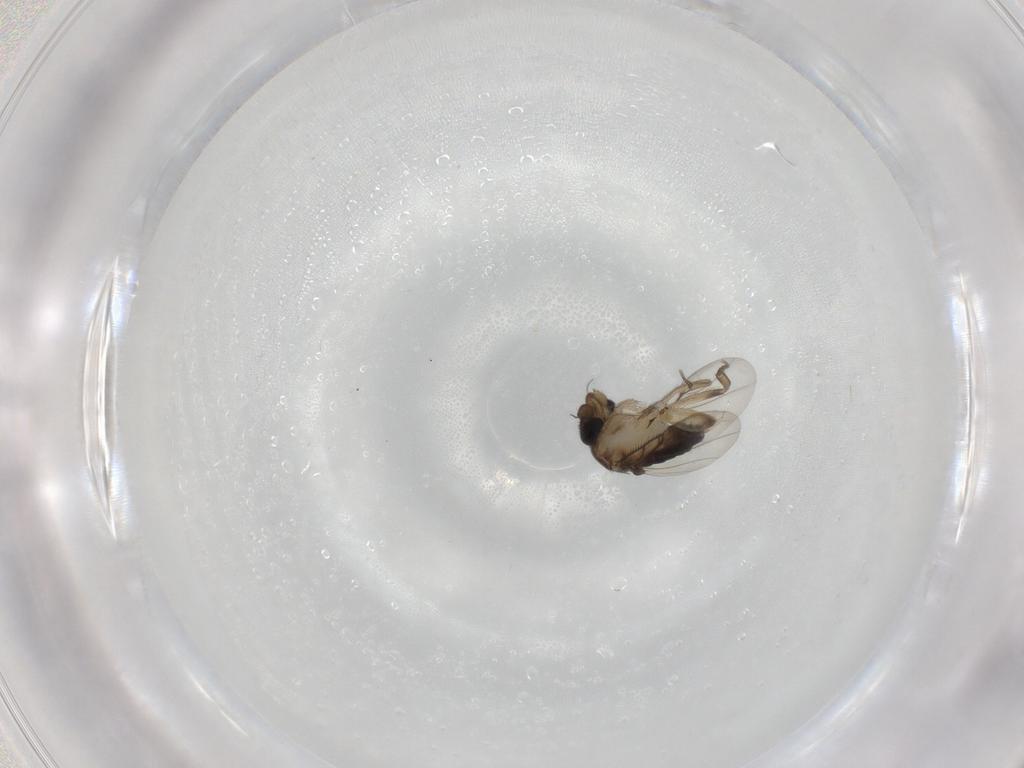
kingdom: Animalia
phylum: Arthropoda
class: Insecta
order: Diptera
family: Phoridae
